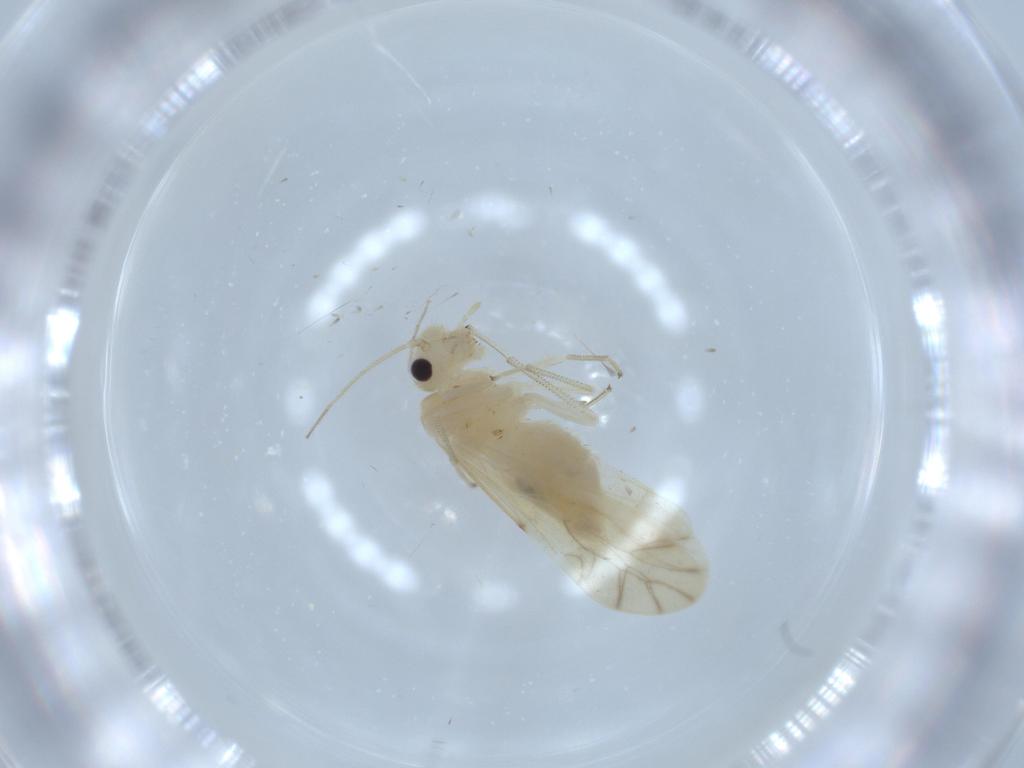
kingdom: Animalia
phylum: Arthropoda
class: Insecta
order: Psocodea
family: Caeciliusidae
